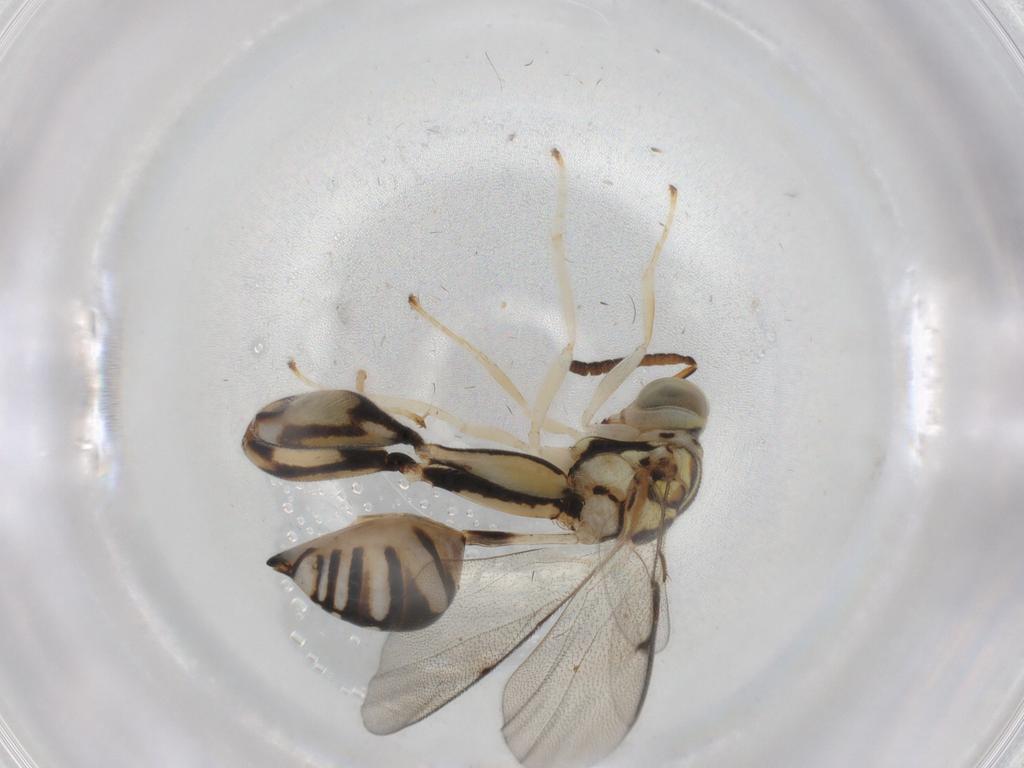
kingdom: Animalia
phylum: Arthropoda
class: Insecta
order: Hymenoptera
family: Chalcididae
